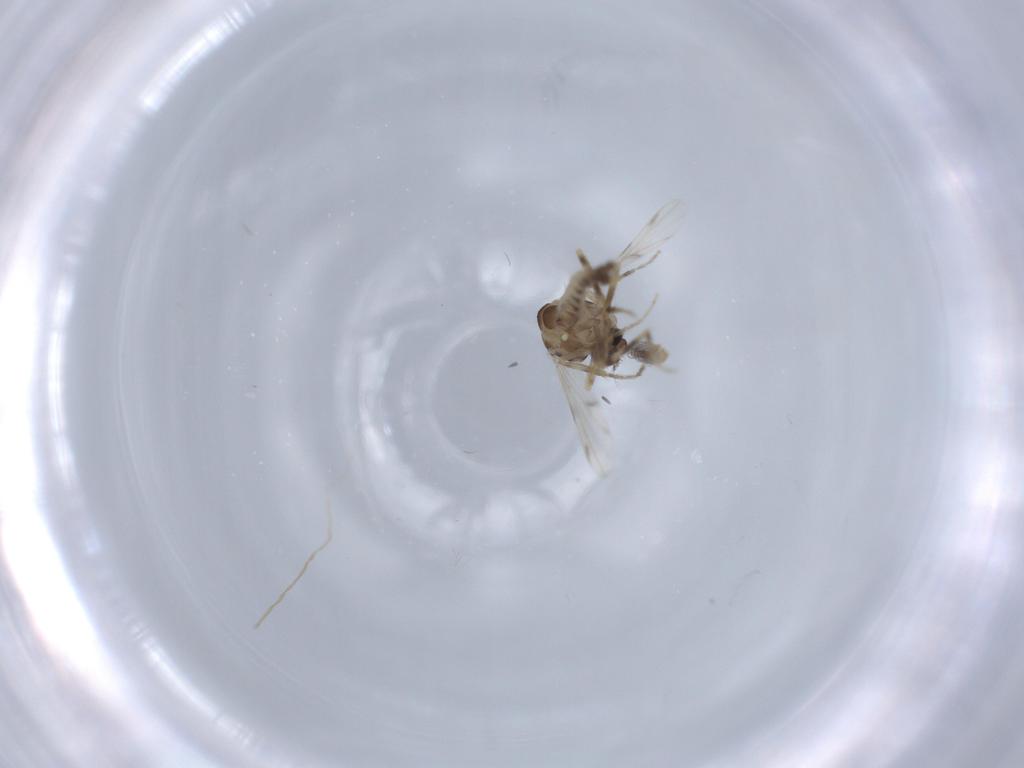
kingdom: Animalia
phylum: Arthropoda
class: Insecta
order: Diptera
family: Ceratopogonidae
